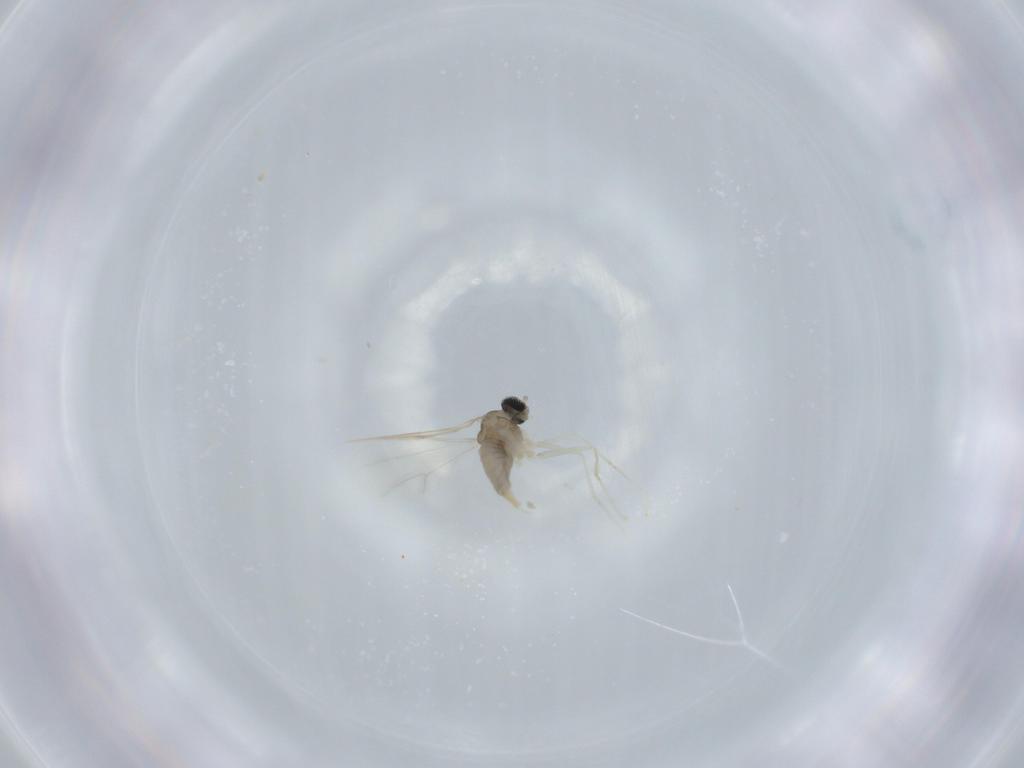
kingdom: Animalia
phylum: Arthropoda
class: Insecta
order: Diptera
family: Cecidomyiidae
